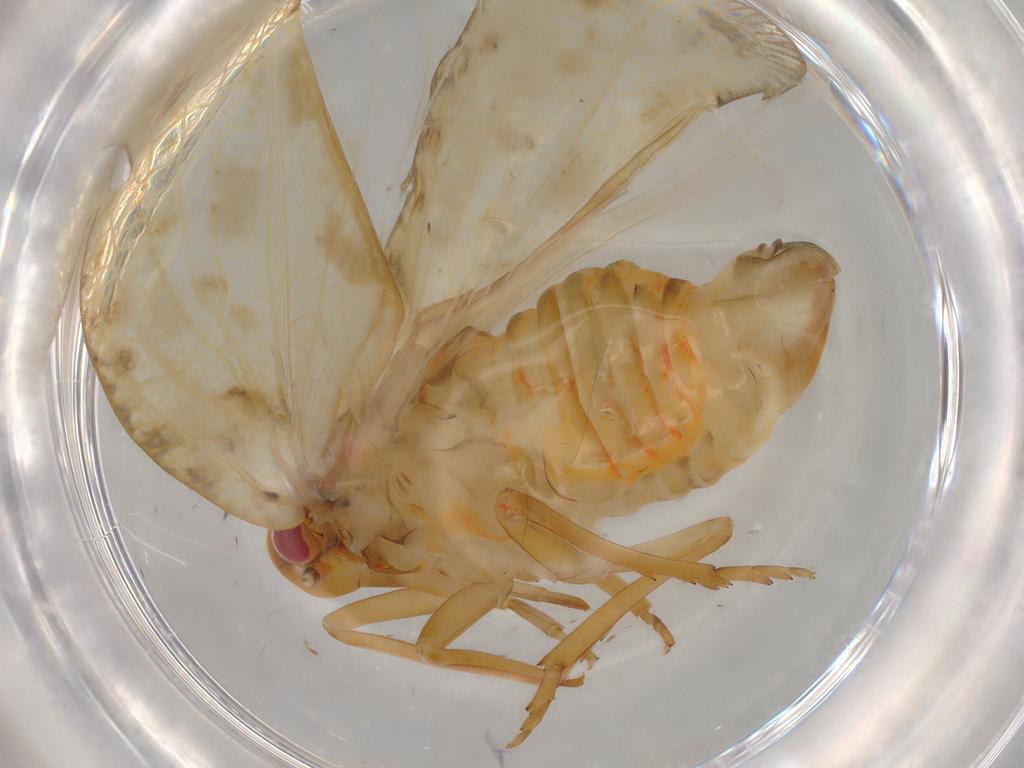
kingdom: Animalia
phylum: Arthropoda
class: Insecta
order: Hemiptera
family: Flatidae
